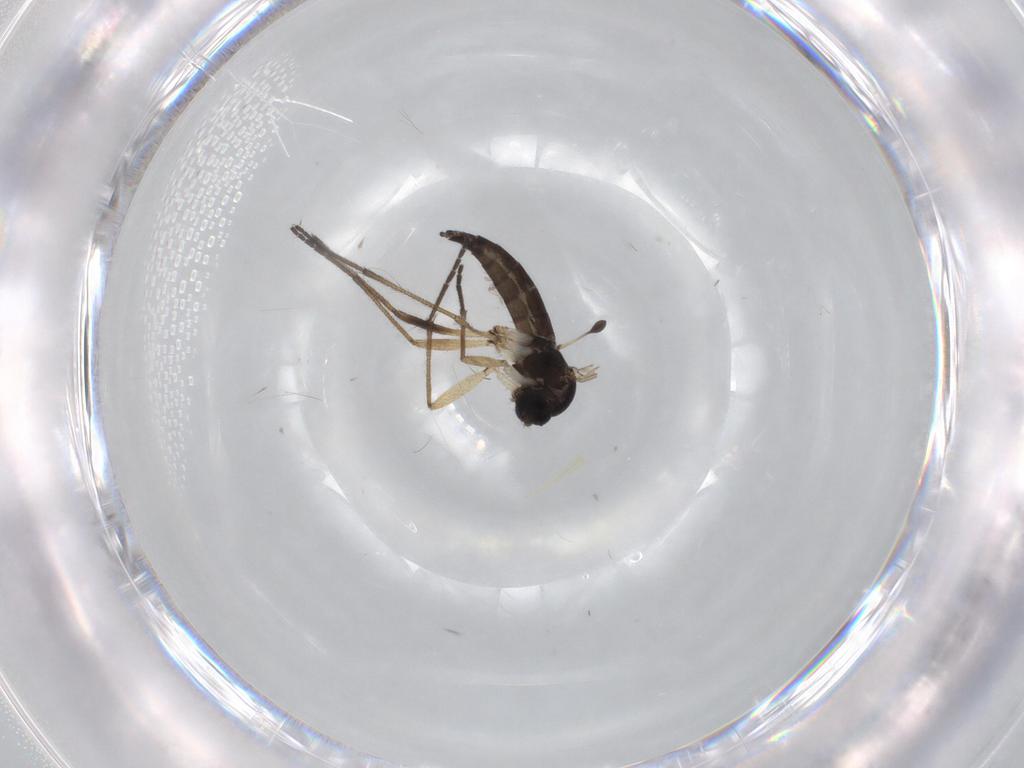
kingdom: Animalia
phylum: Arthropoda
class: Insecta
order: Diptera
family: Sciaridae
